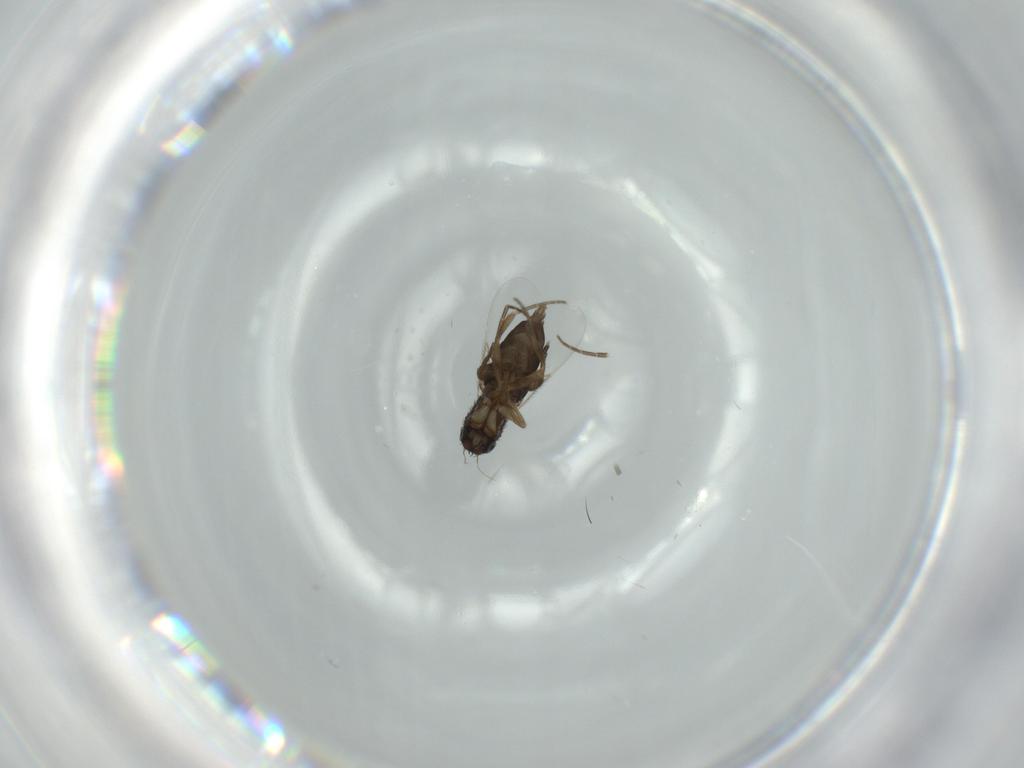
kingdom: Animalia
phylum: Arthropoda
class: Insecta
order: Diptera
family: Phoridae
